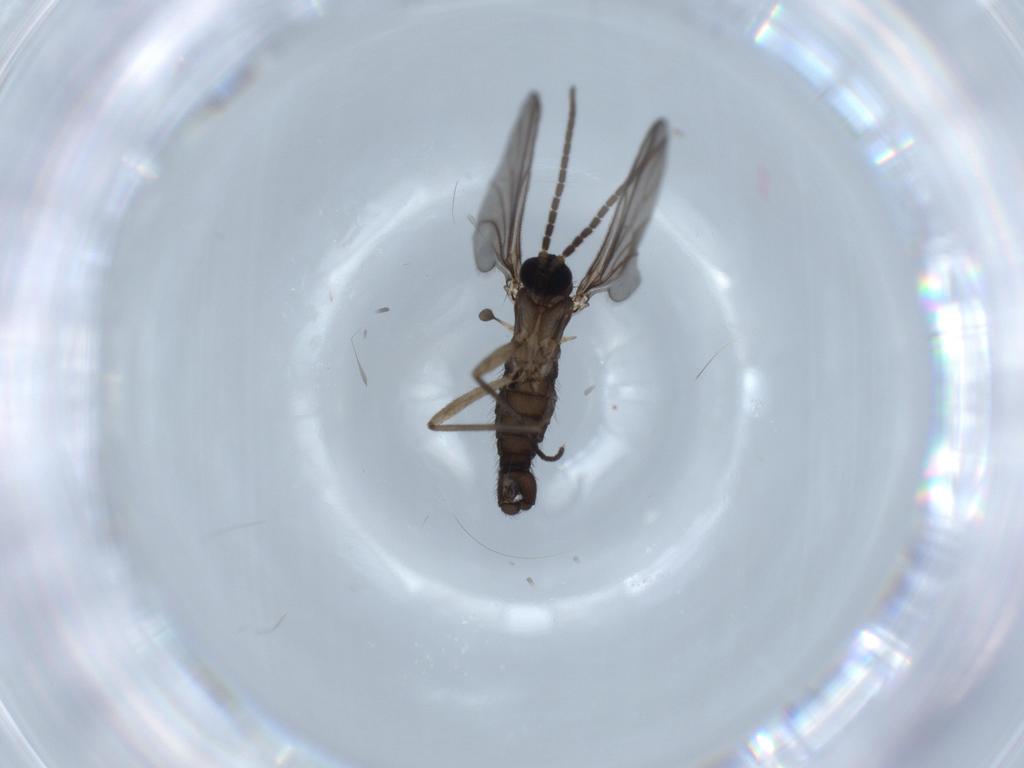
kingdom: Animalia
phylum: Arthropoda
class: Insecta
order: Diptera
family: Sciaridae
